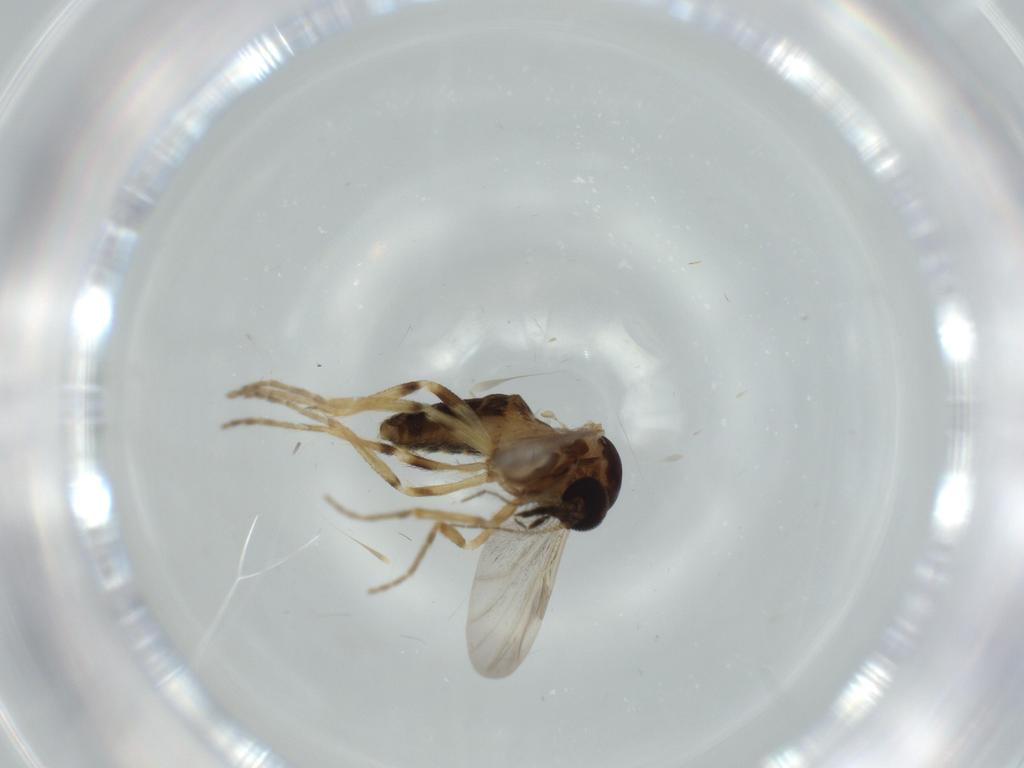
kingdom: Animalia
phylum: Arthropoda
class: Insecta
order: Diptera
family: Ceratopogonidae
